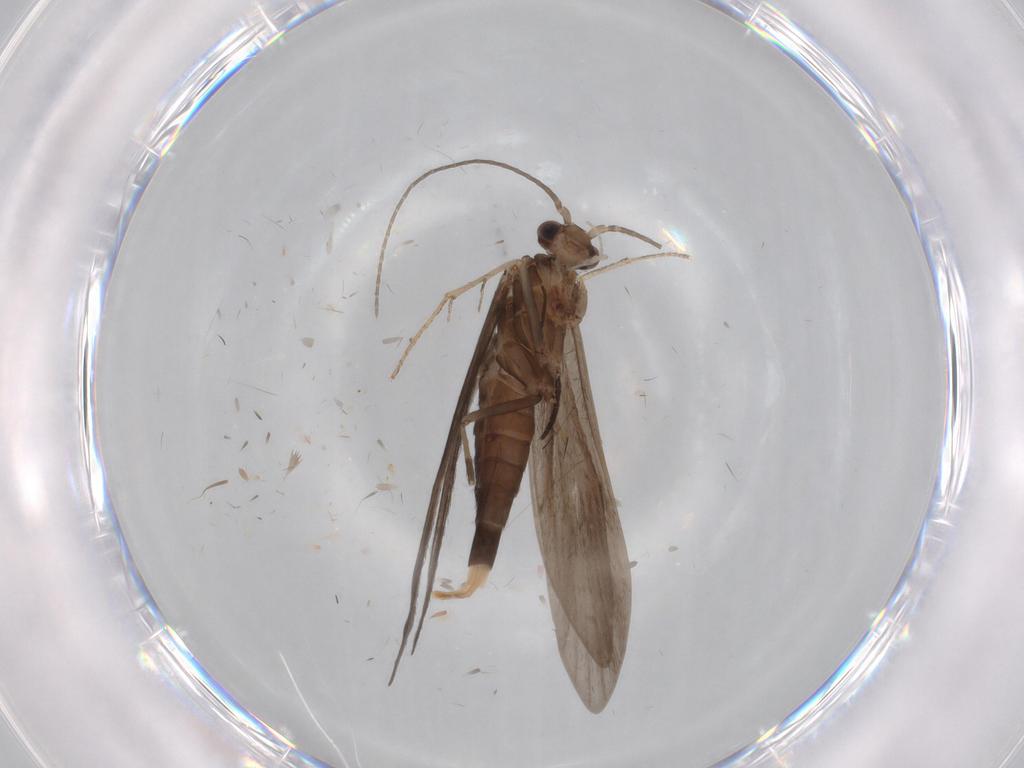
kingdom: Animalia
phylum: Arthropoda
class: Insecta
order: Trichoptera
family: Xiphocentronidae
